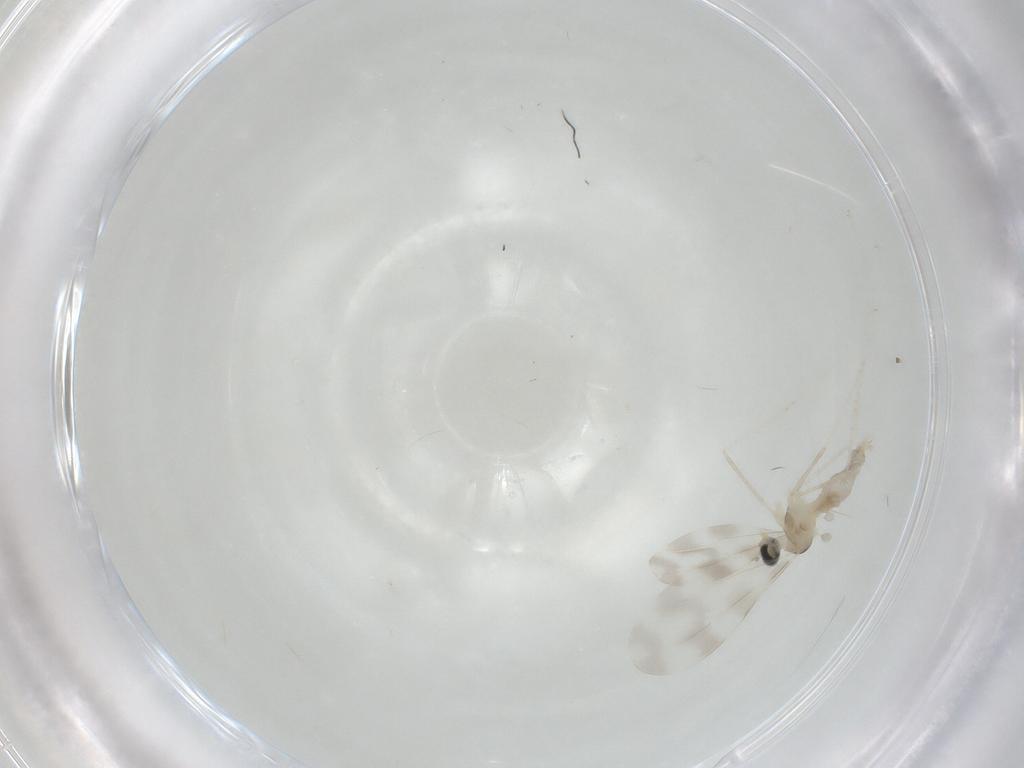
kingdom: Animalia
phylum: Arthropoda
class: Insecta
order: Diptera
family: Cecidomyiidae
